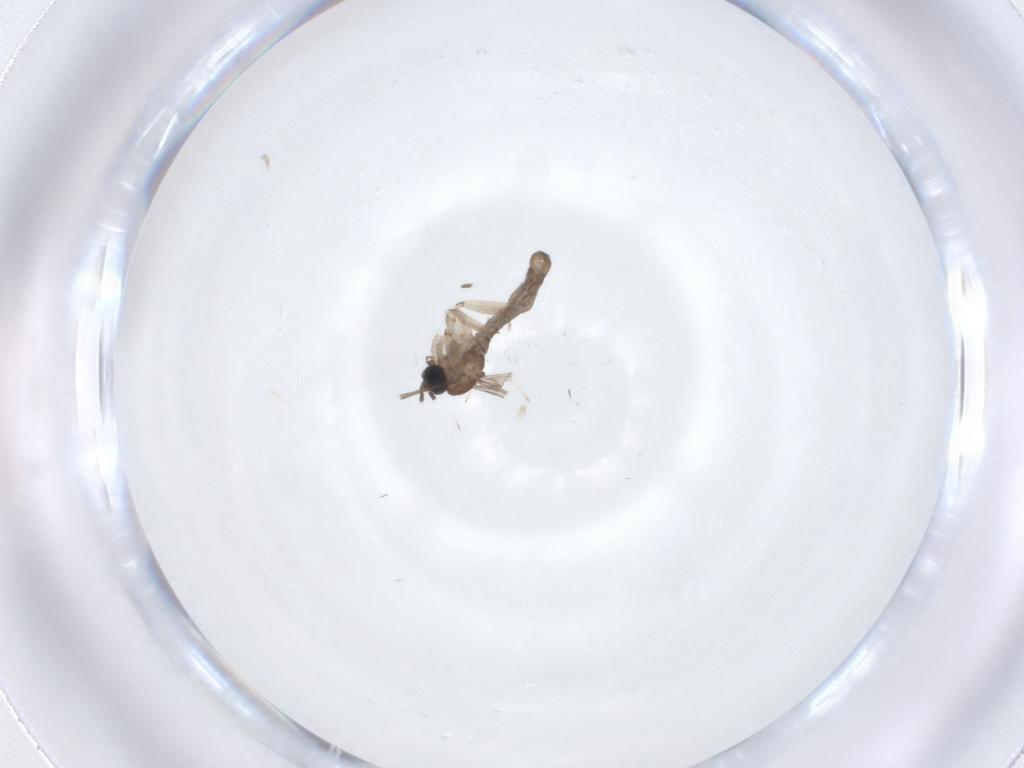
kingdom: Animalia
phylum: Arthropoda
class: Insecta
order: Diptera
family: Sciaridae
